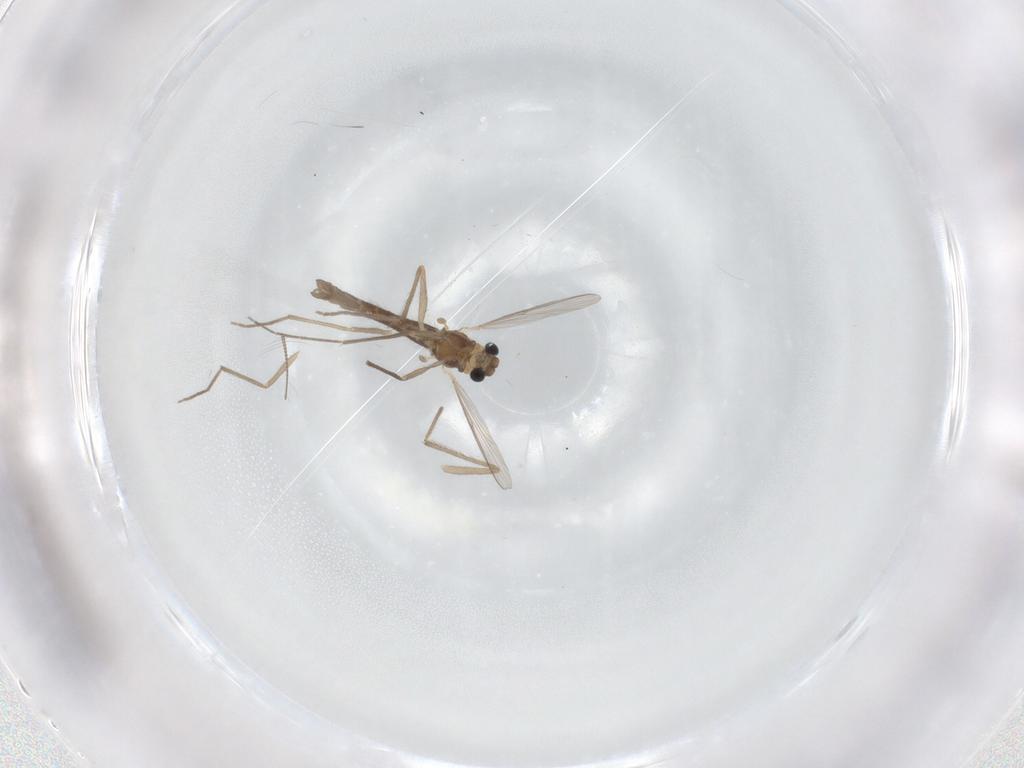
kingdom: Animalia
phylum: Arthropoda
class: Insecta
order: Diptera
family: Chironomidae
